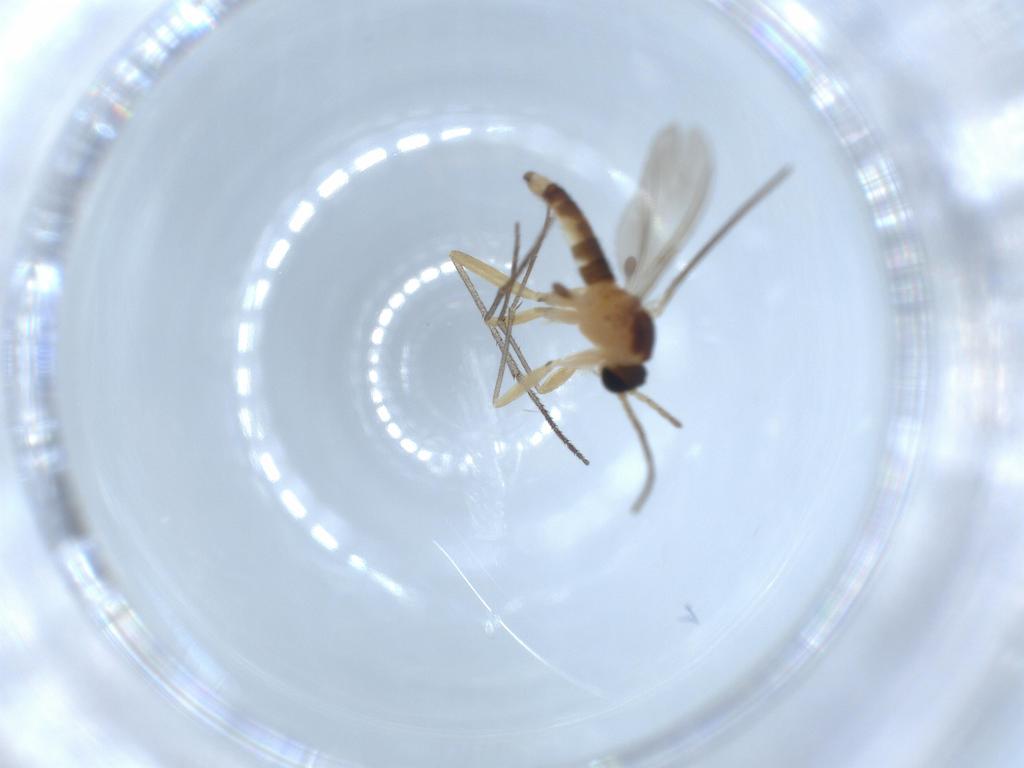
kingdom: Animalia
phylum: Arthropoda
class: Insecta
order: Diptera
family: Sciaridae
